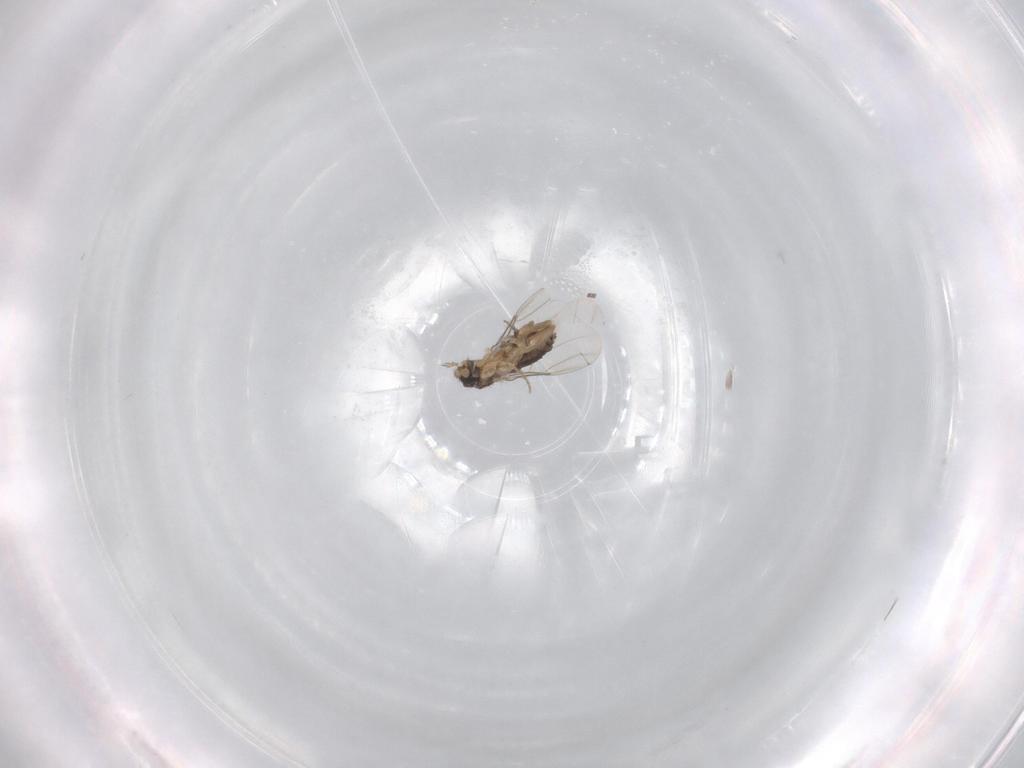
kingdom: Animalia
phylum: Arthropoda
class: Insecta
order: Diptera
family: Phoridae
